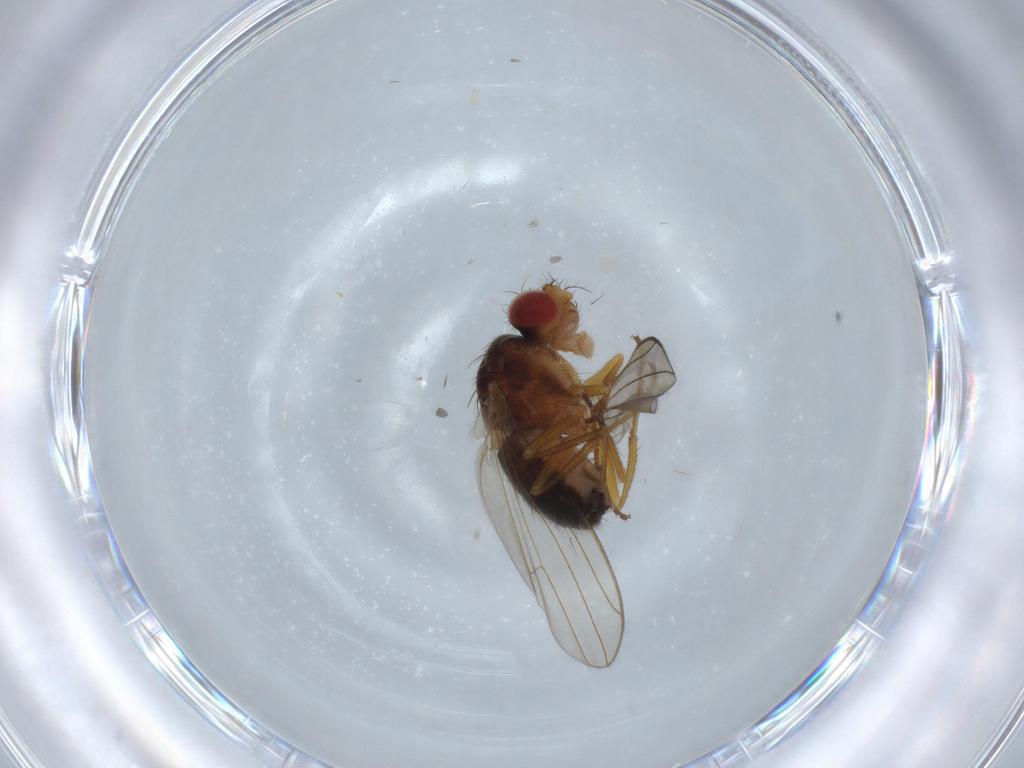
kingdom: Animalia
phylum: Arthropoda
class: Insecta
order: Diptera
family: Drosophilidae
